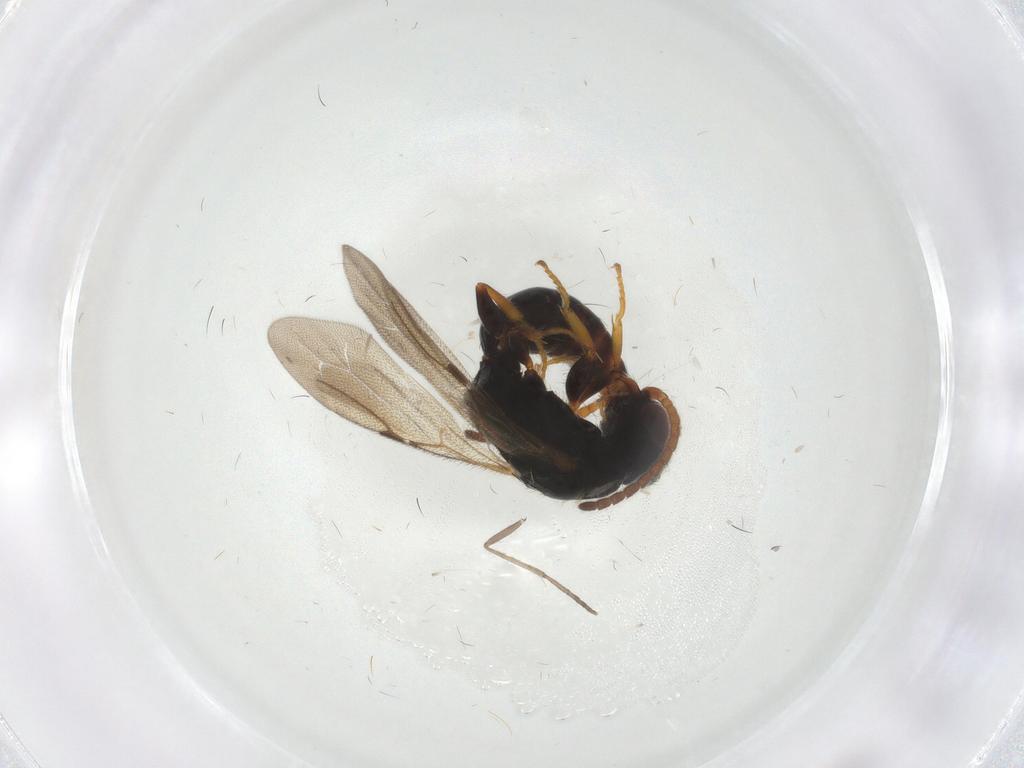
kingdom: Animalia
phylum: Arthropoda
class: Insecta
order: Hymenoptera
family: Bethylidae
